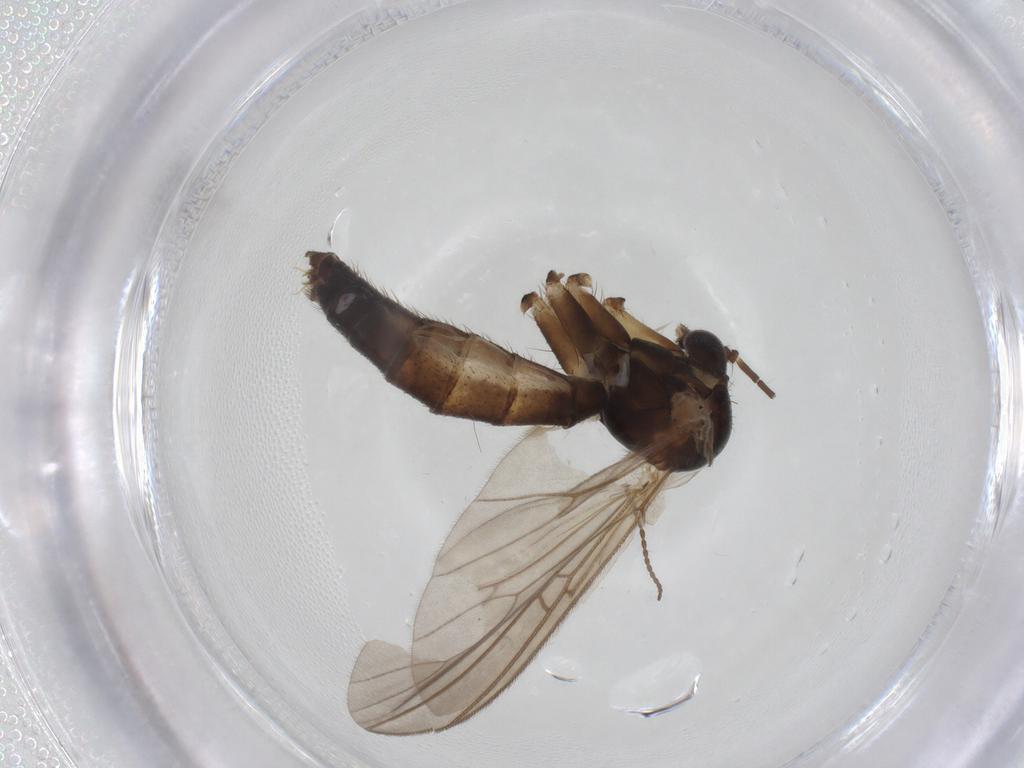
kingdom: Animalia
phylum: Arthropoda
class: Insecta
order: Diptera
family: Mycetophilidae
